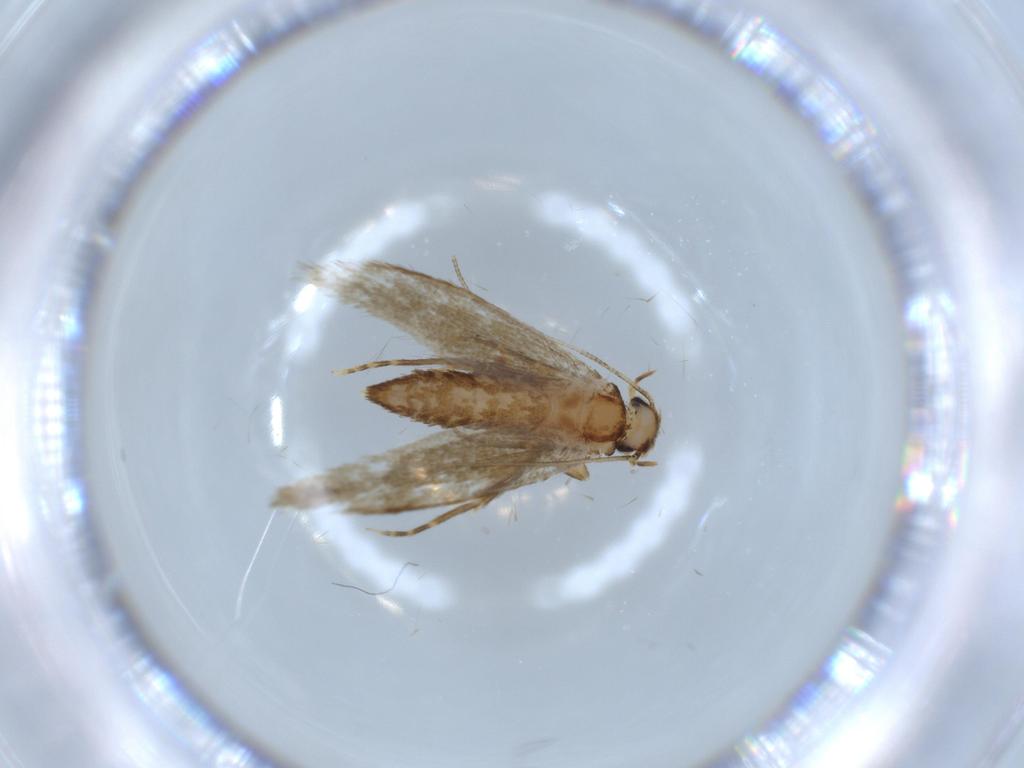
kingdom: Animalia
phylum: Arthropoda
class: Insecta
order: Lepidoptera
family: Tineidae
